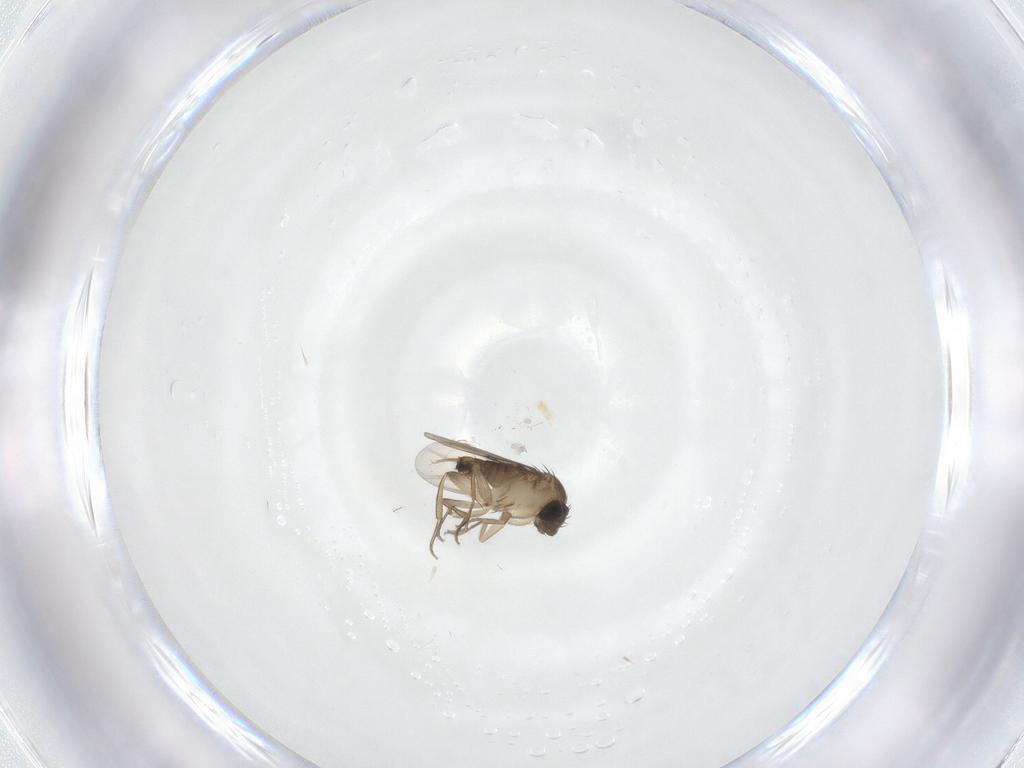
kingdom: Animalia
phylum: Arthropoda
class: Insecta
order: Diptera
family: Phoridae
